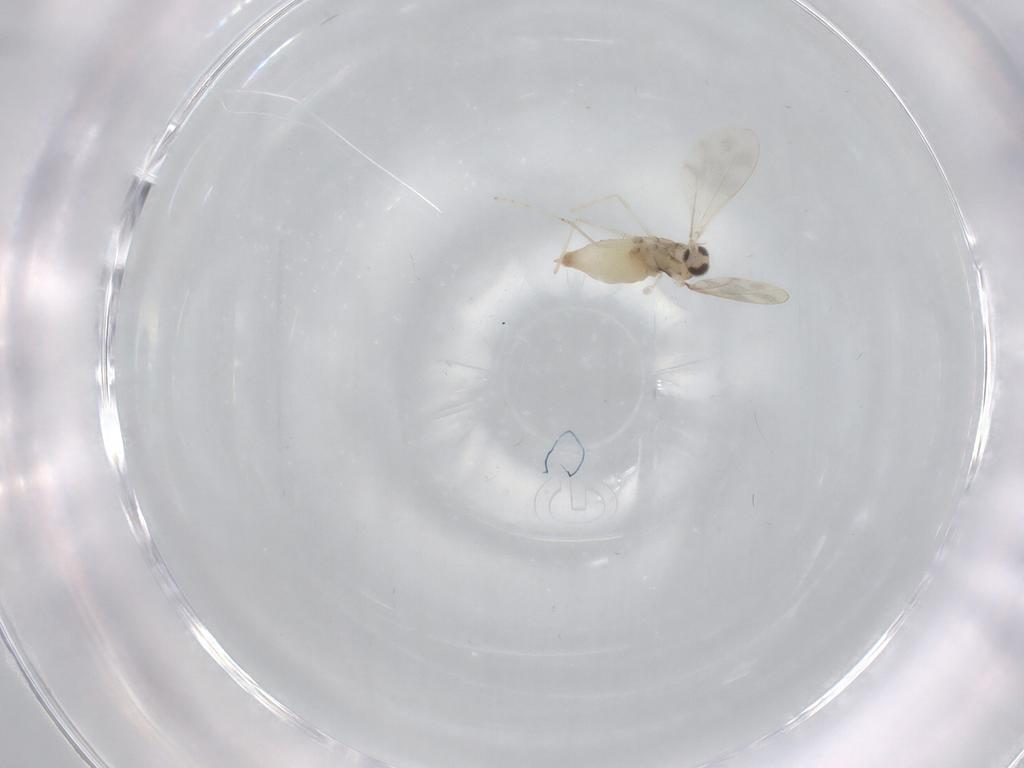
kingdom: Animalia
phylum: Arthropoda
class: Insecta
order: Diptera
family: Cecidomyiidae
